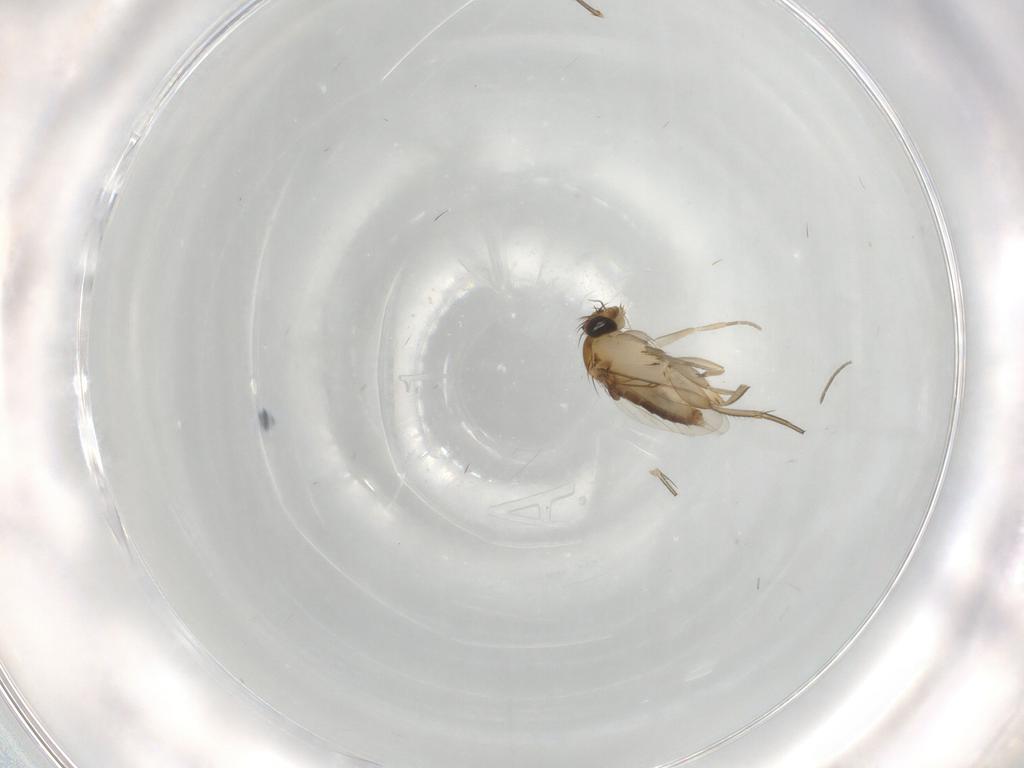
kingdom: Animalia
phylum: Arthropoda
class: Insecta
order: Diptera
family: Phoridae
